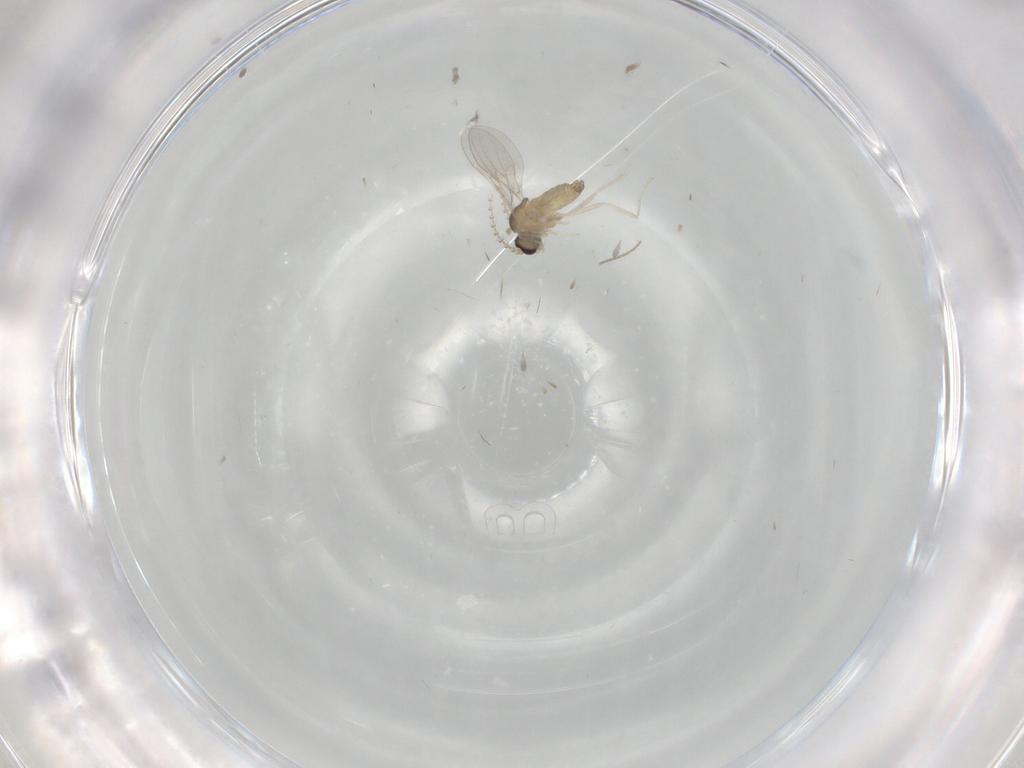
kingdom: Animalia
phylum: Arthropoda
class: Insecta
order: Diptera
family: Cecidomyiidae
